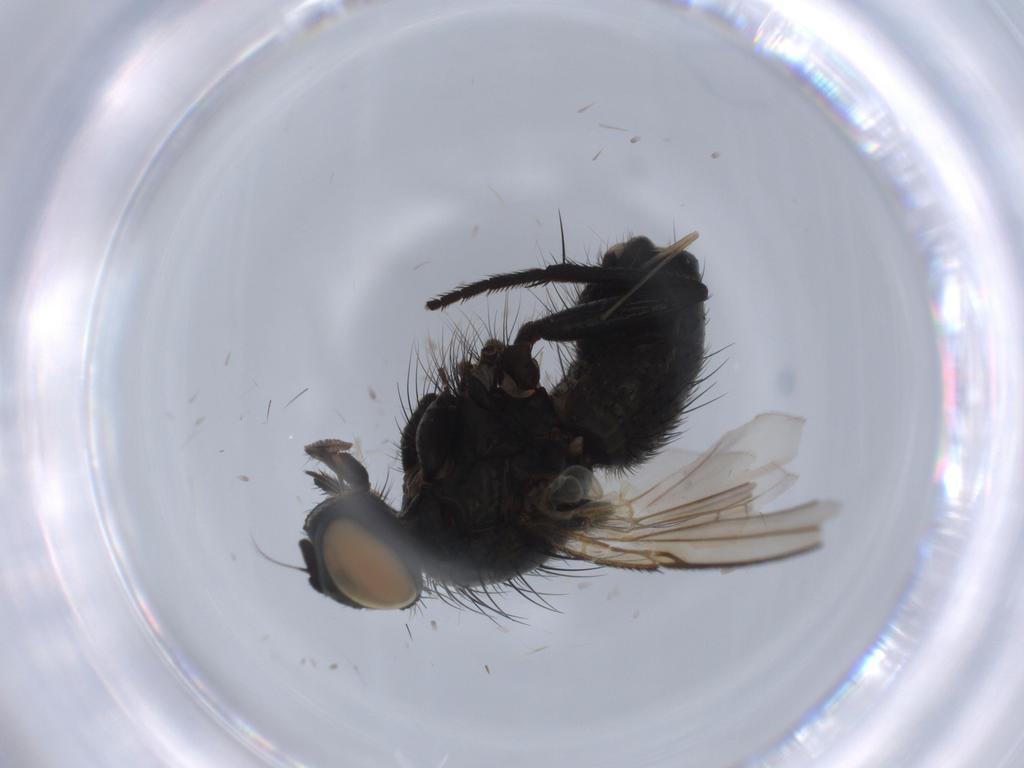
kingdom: Animalia
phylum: Arthropoda
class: Insecta
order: Diptera
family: Muscidae
